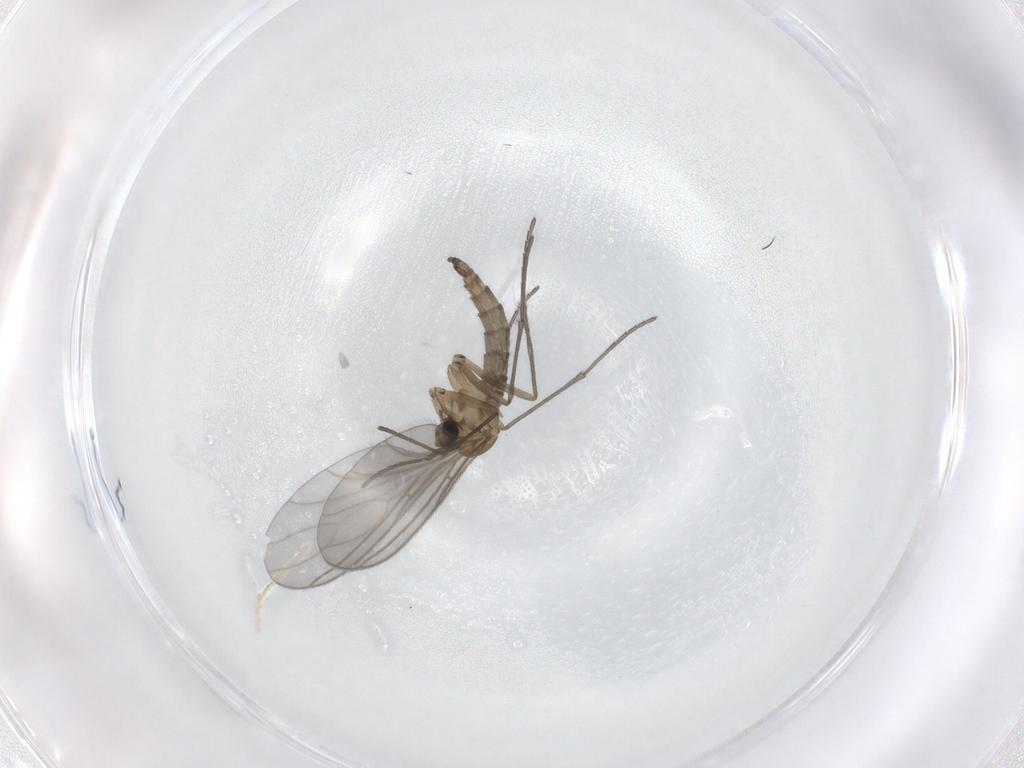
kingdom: Animalia
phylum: Arthropoda
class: Insecta
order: Diptera
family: Sciaridae
